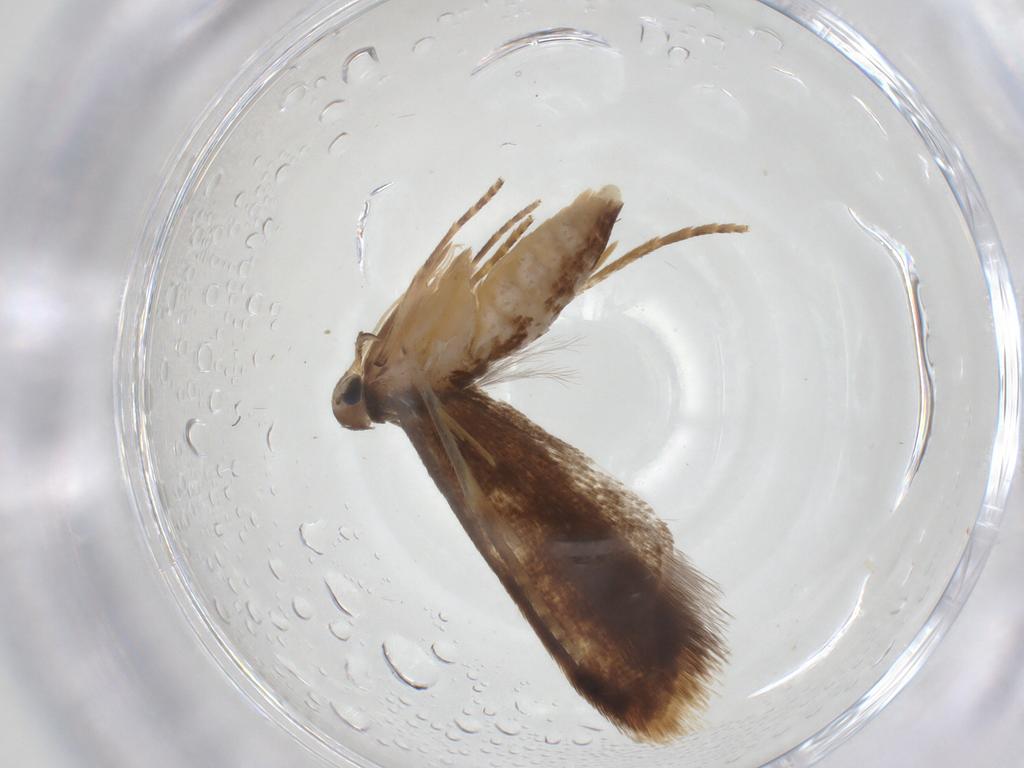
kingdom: Animalia
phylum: Arthropoda
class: Insecta
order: Lepidoptera
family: Gelechiidae
